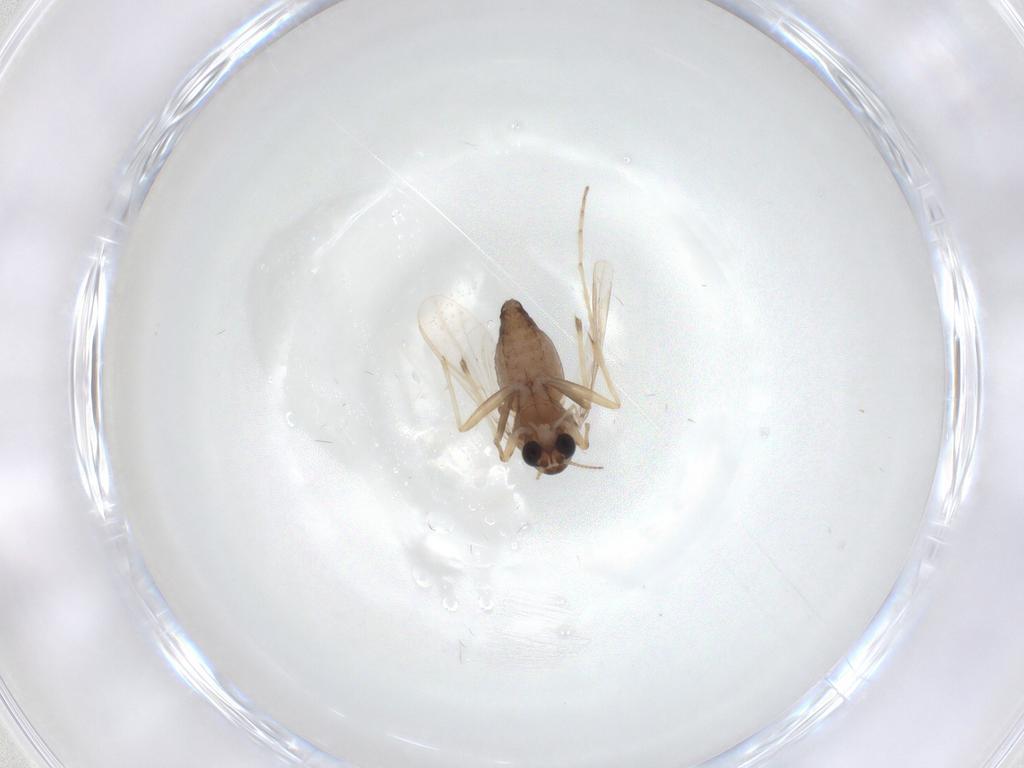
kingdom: Animalia
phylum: Arthropoda
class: Insecta
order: Diptera
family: Chironomidae
